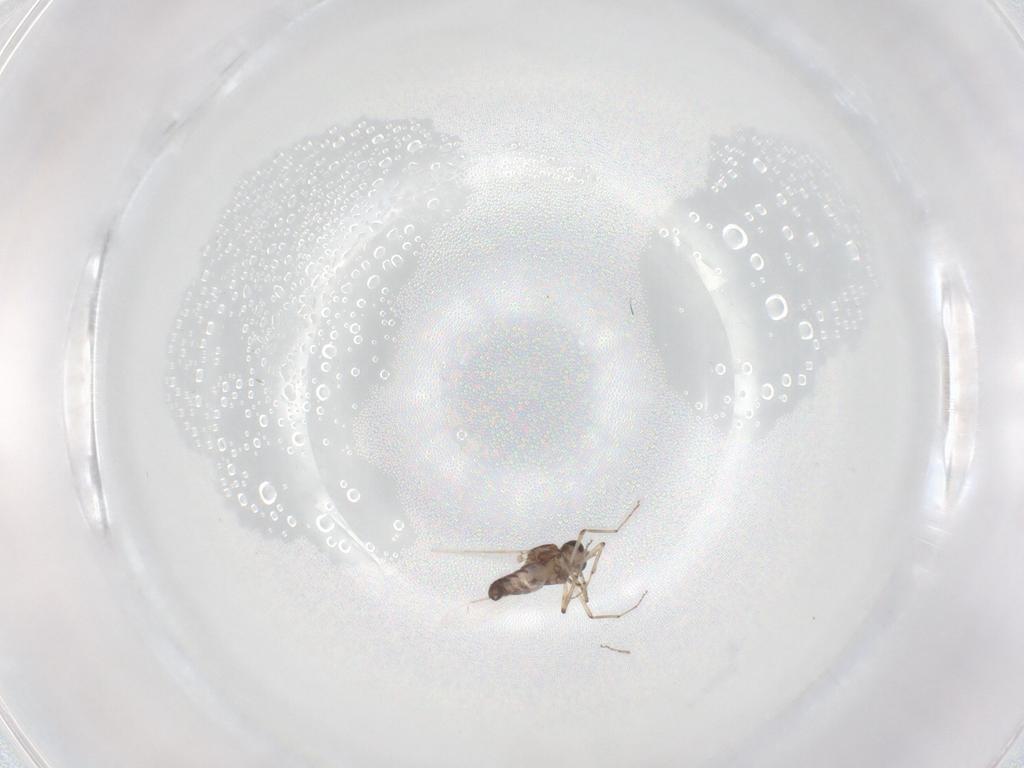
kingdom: Animalia
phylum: Arthropoda
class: Insecta
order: Diptera
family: Ceratopogonidae
